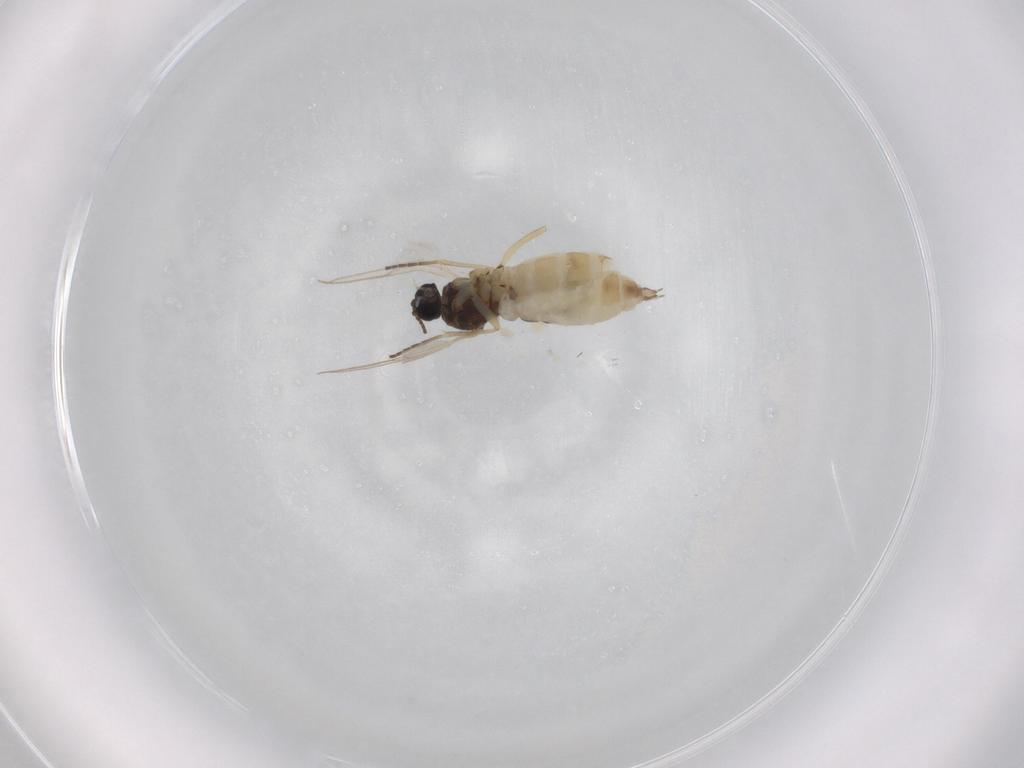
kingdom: Animalia
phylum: Arthropoda
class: Insecta
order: Diptera
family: Sciaridae
